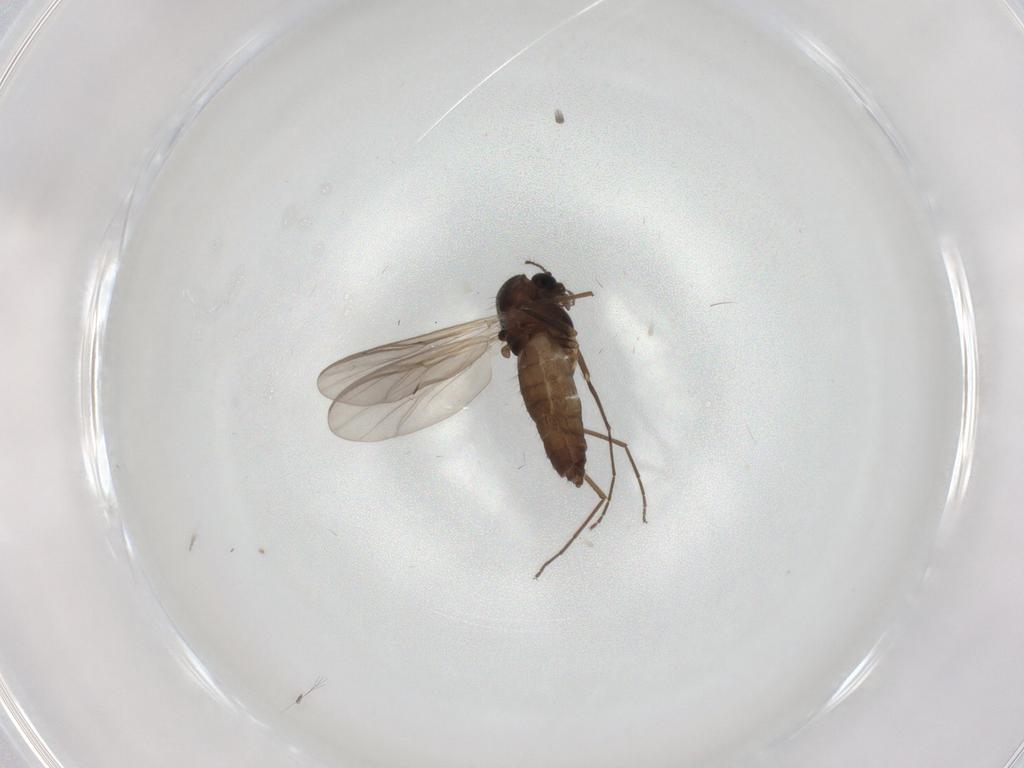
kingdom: Animalia
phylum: Arthropoda
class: Insecta
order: Diptera
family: Chironomidae
